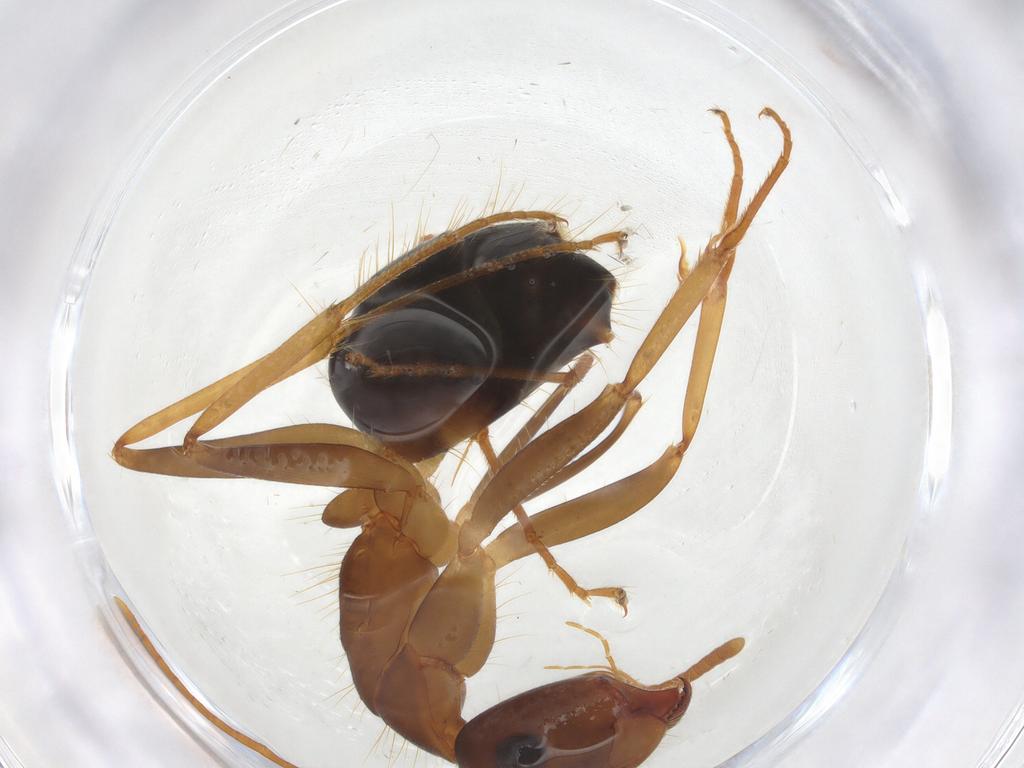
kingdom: Animalia
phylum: Arthropoda
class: Insecta
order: Hymenoptera
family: Formicidae
